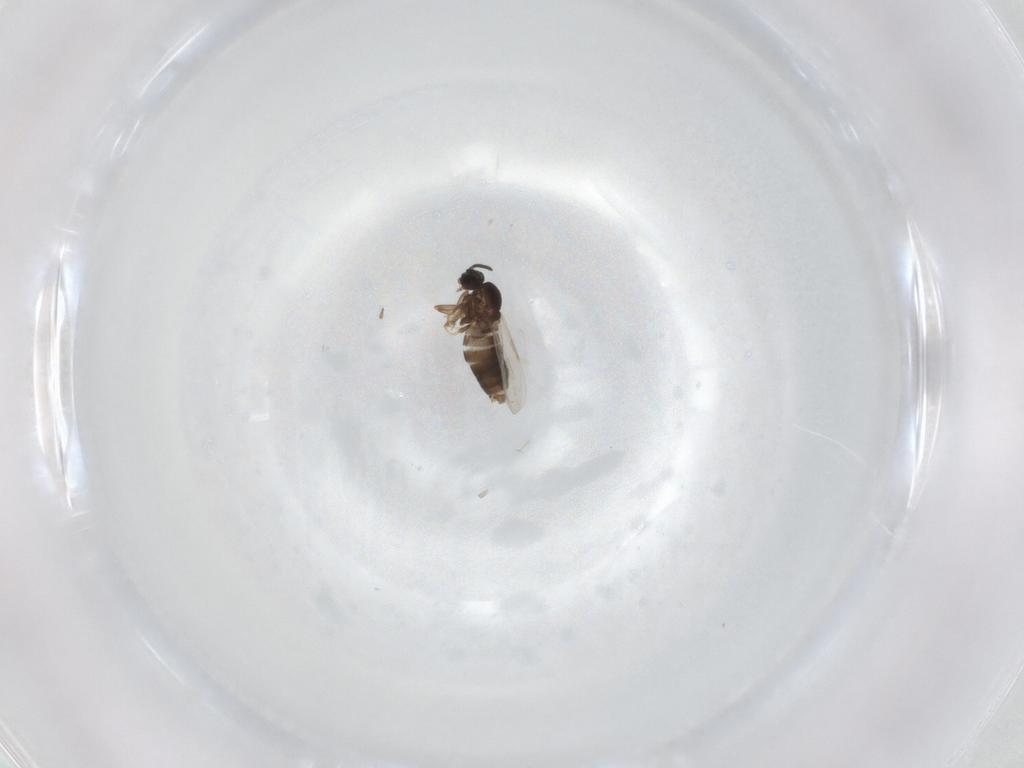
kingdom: Animalia
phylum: Arthropoda
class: Insecta
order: Diptera
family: Scatopsidae
